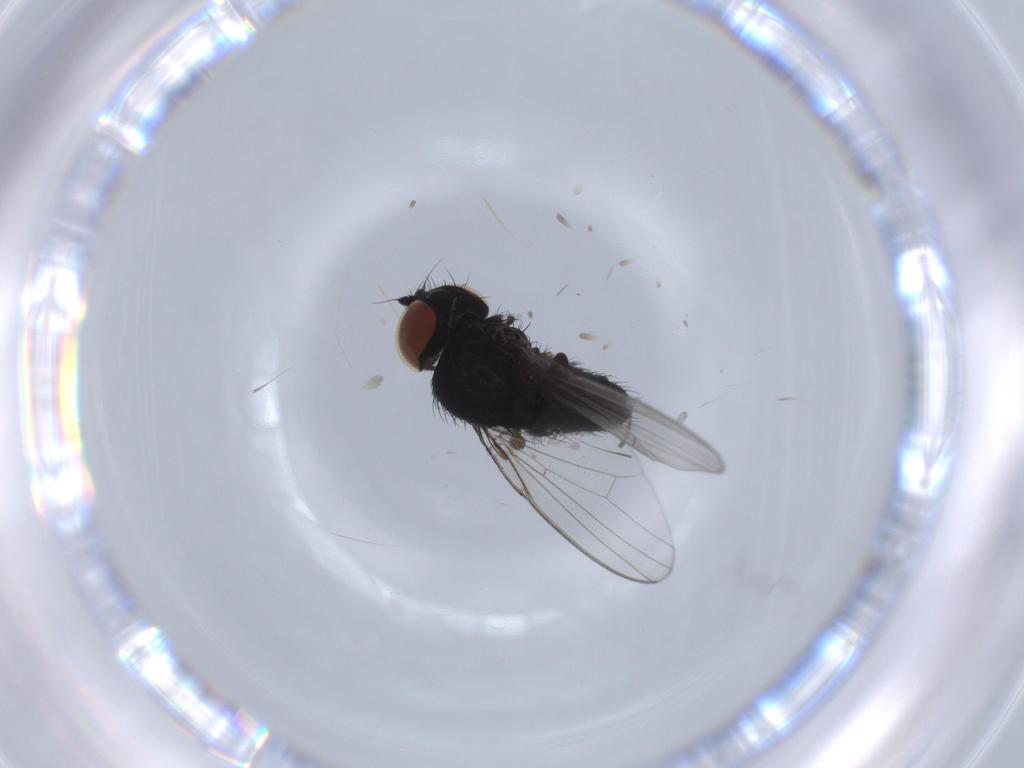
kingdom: Animalia
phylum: Arthropoda
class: Insecta
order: Diptera
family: Milichiidae
